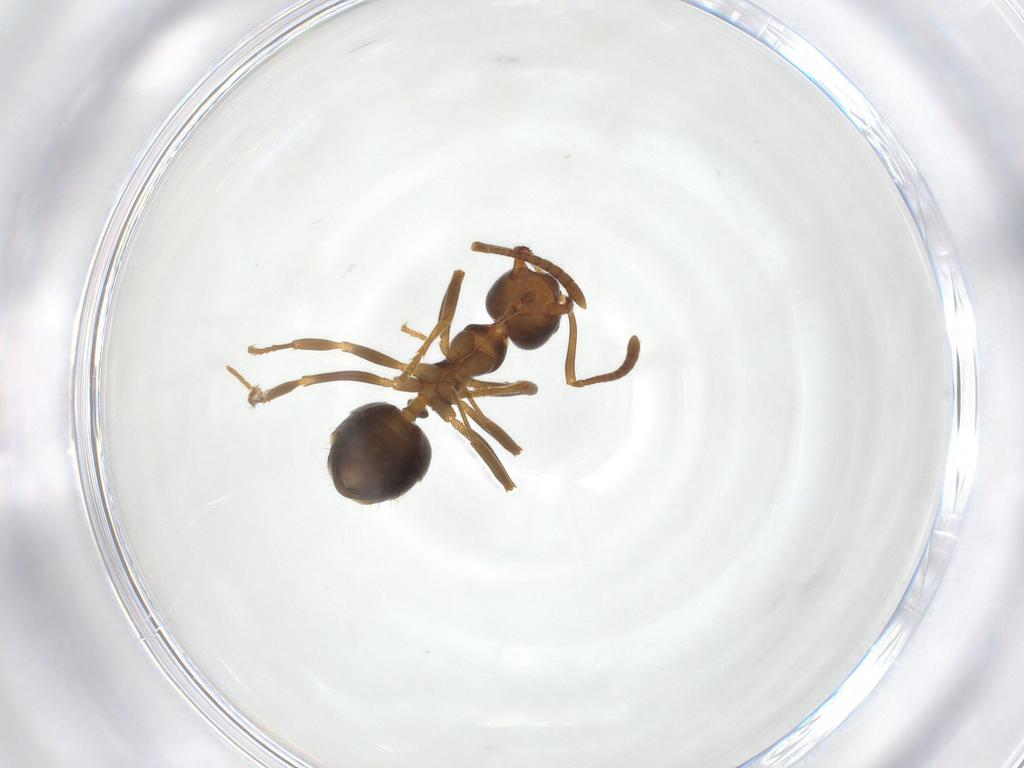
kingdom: Animalia
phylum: Arthropoda
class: Insecta
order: Hymenoptera
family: Formicidae
